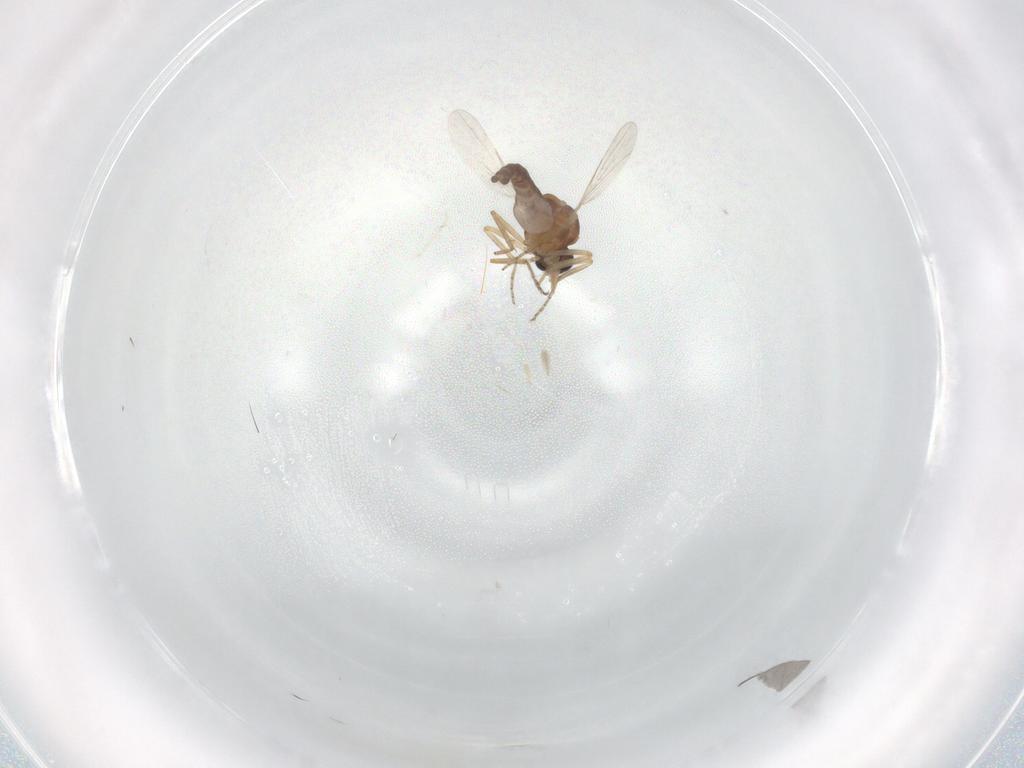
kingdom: Animalia
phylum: Arthropoda
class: Insecta
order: Diptera
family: Ceratopogonidae
